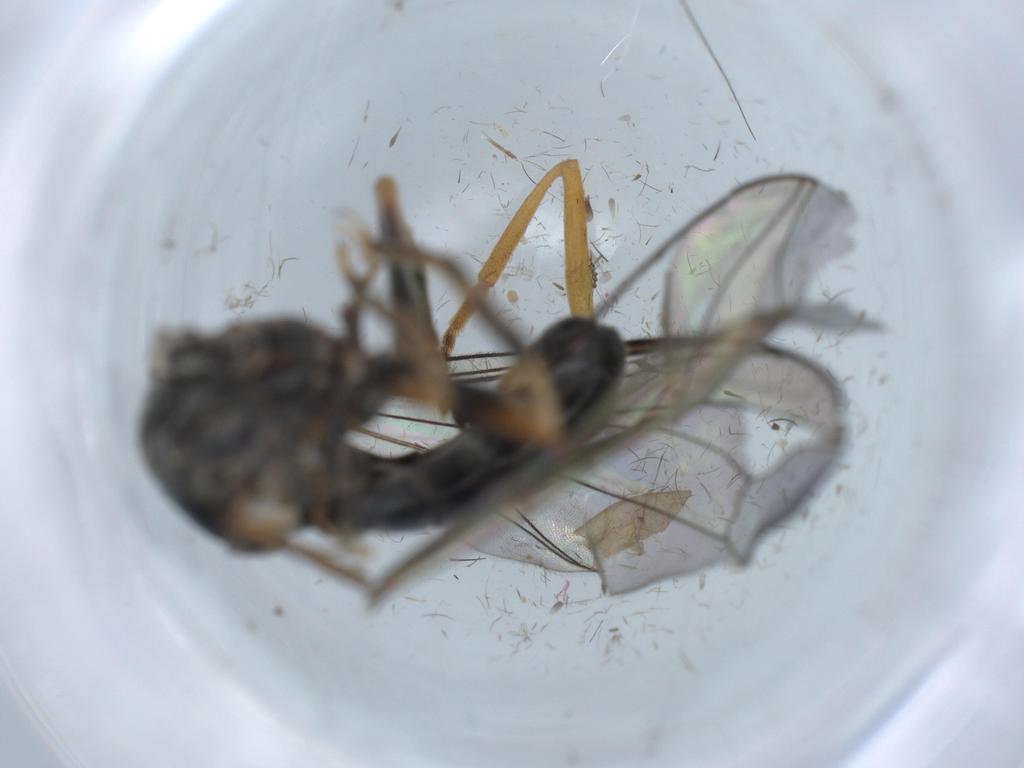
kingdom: Animalia
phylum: Arthropoda
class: Insecta
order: Diptera
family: Pipunculidae
